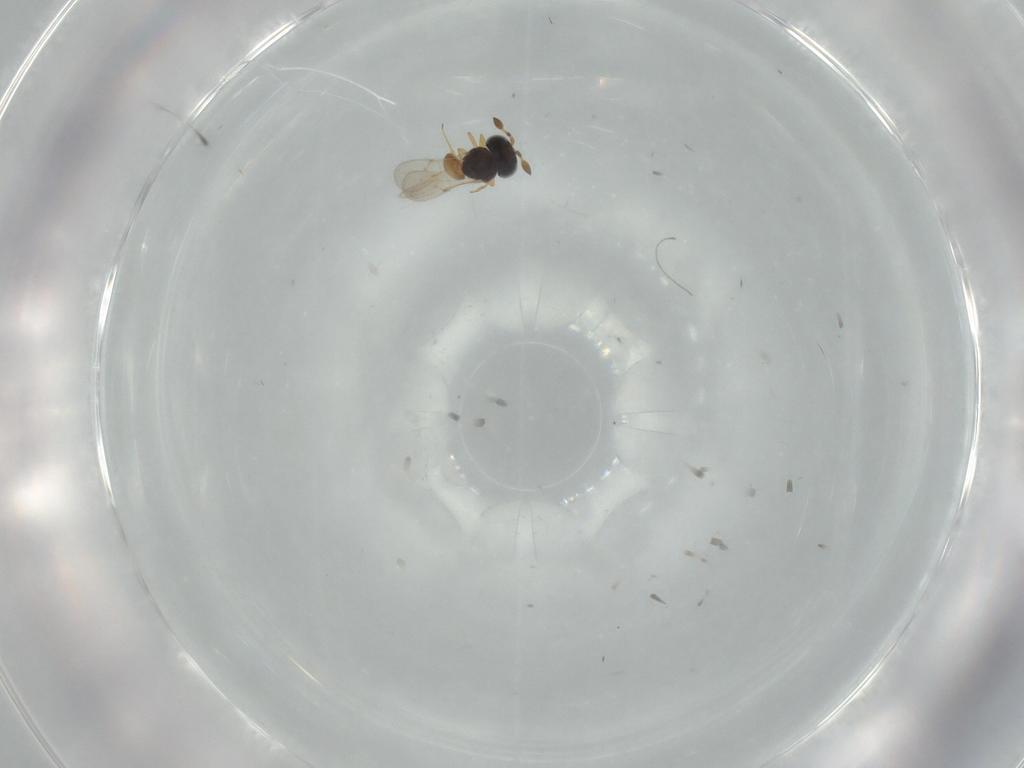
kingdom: Animalia
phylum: Arthropoda
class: Insecta
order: Hymenoptera
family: Scelionidae
